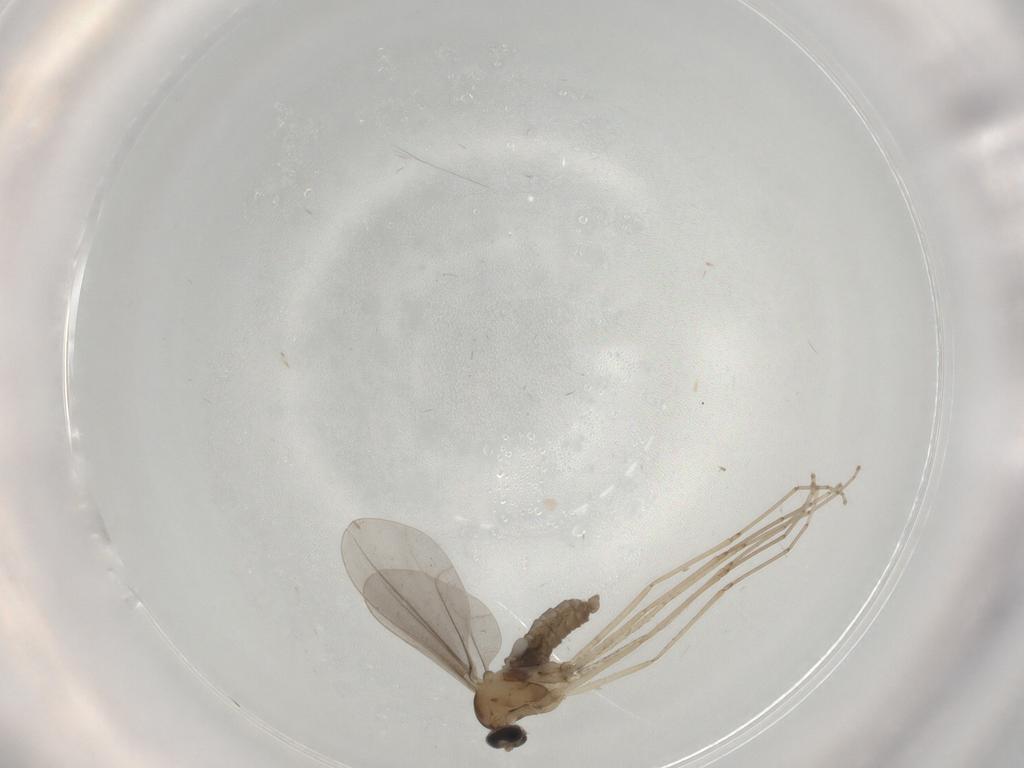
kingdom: Animalia
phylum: Arthropoda
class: Insecta
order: Diptera
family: Cecidomyiidae
